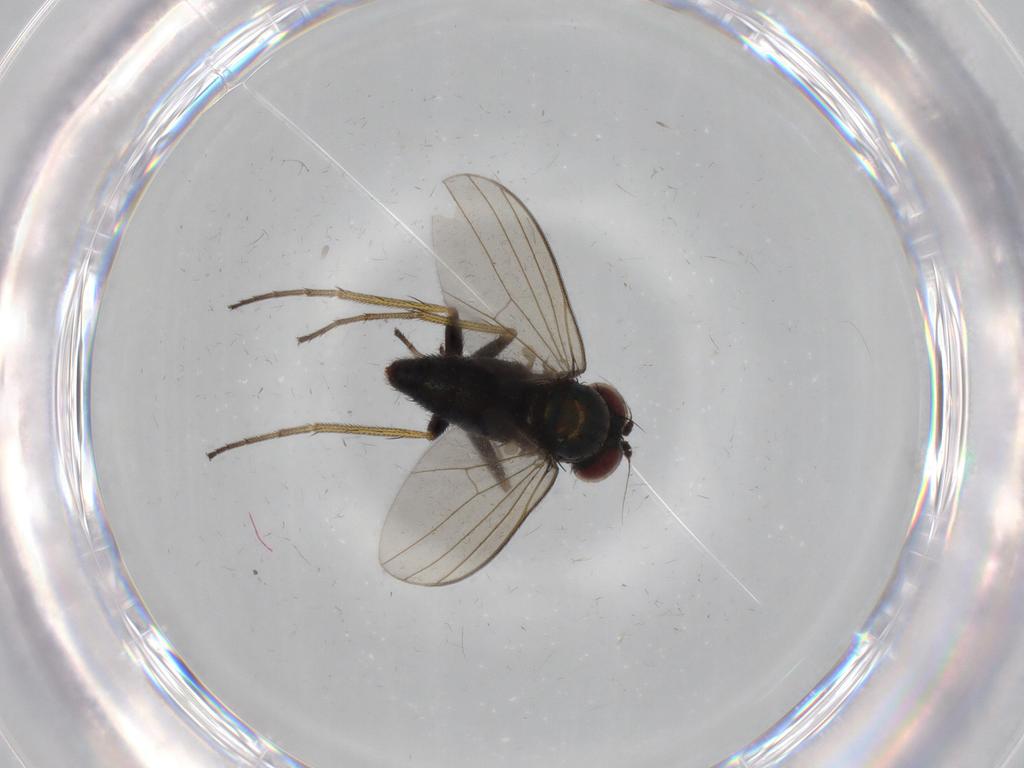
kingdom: Animalia
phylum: Arthropoda
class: Insecta
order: Diptera
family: Dolichopodidae
